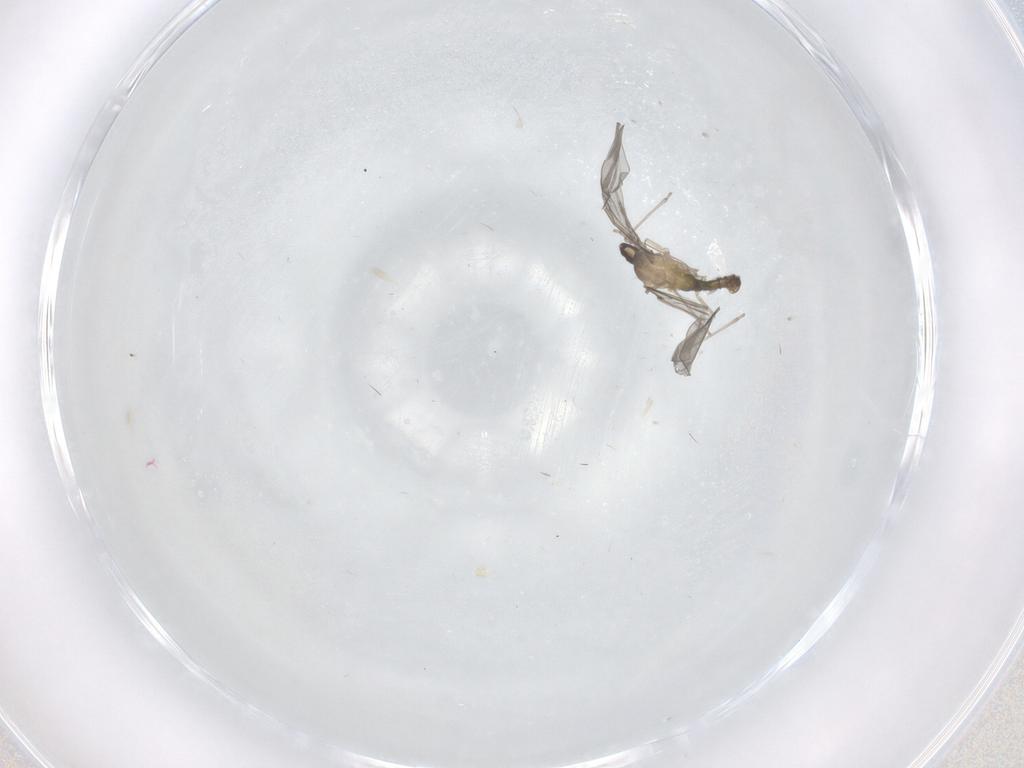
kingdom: Animalia
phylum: Arthropoda
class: Insecta
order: Diptera
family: Cecidomyiidae
